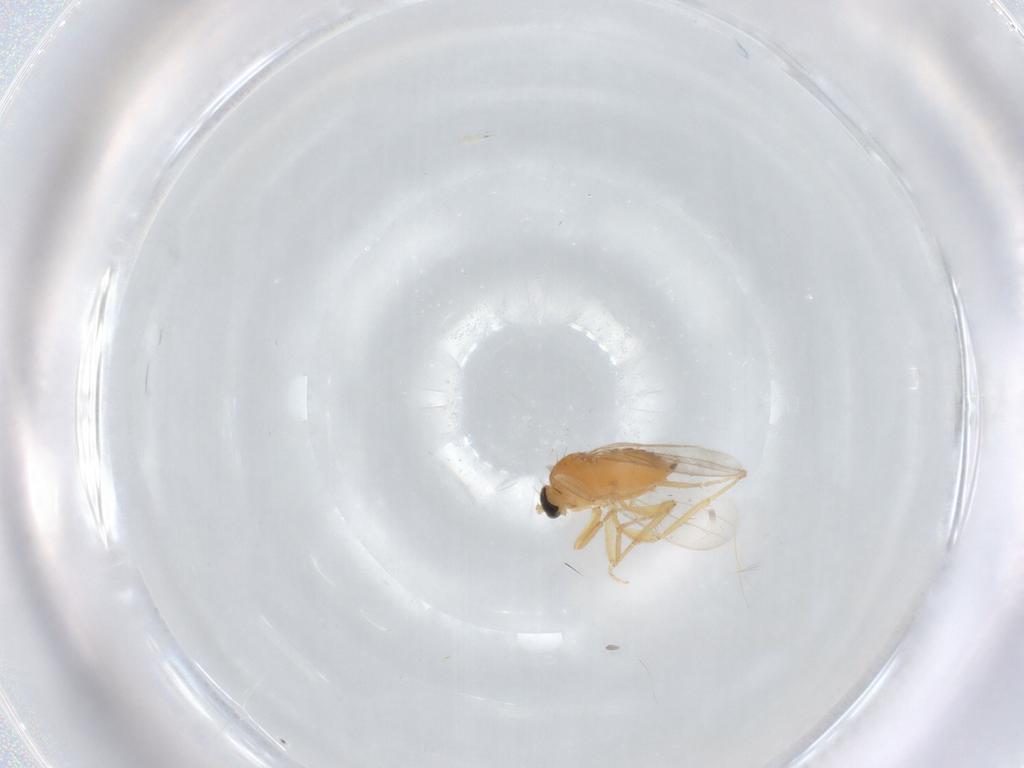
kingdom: Animalia
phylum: Arthropoda
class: Insecta
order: Diptera
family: Hybotidae
